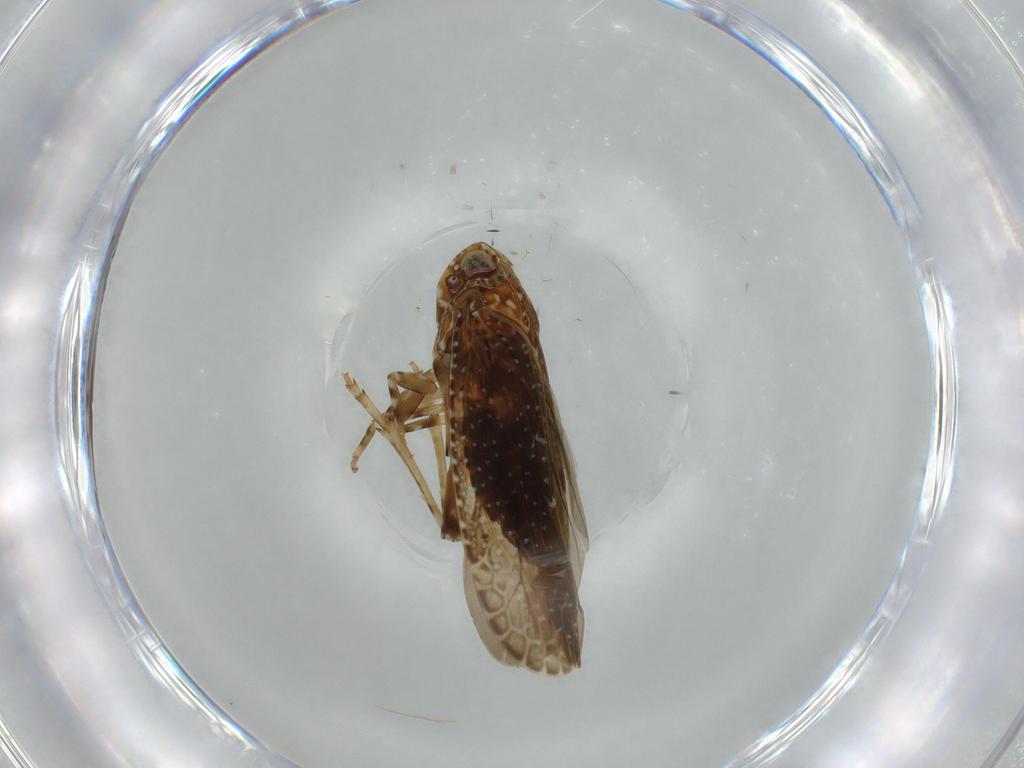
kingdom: Animalia
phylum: Arthropoda
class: Insecta
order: Hemiptera
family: Achilidae
